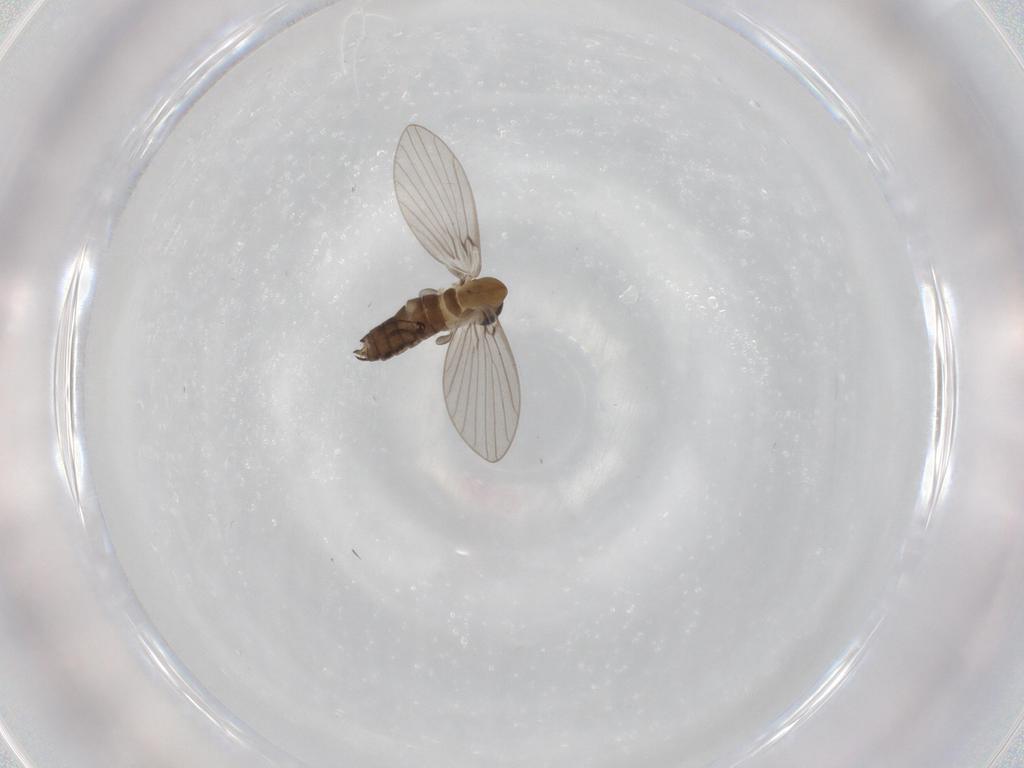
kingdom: Animalia
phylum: Arthropoda
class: Insecta
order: Diptera
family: Psychodidae
